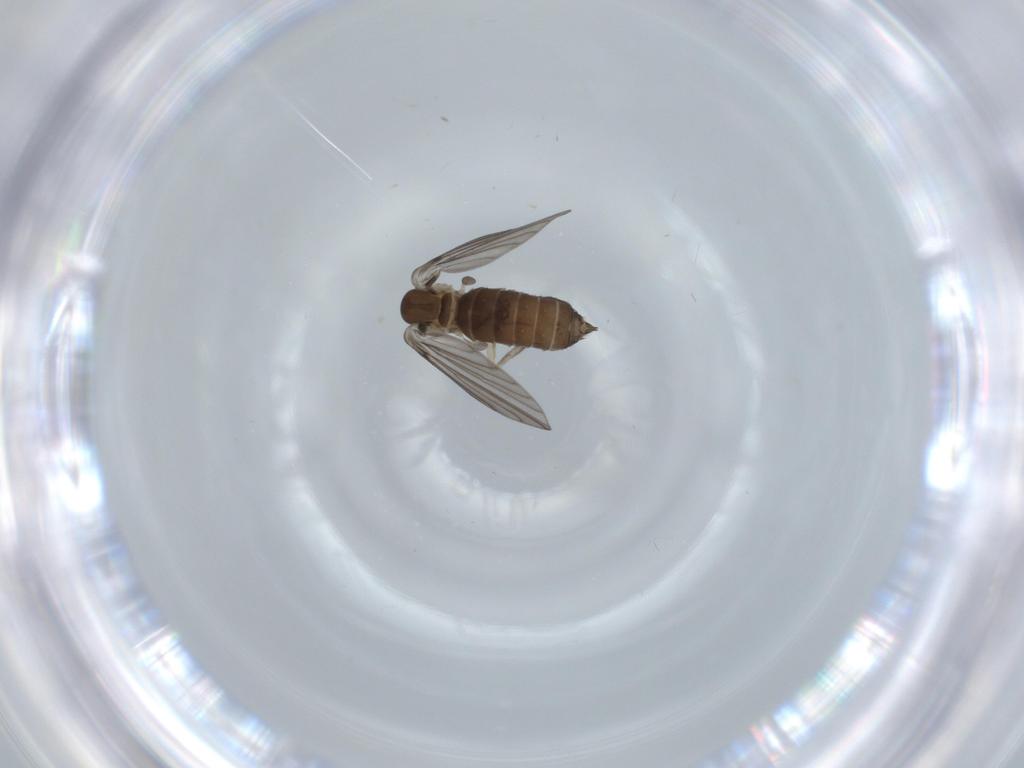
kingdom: Animalia
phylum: Arthropoda
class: Insecta
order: Diptera
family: Psychodidae
